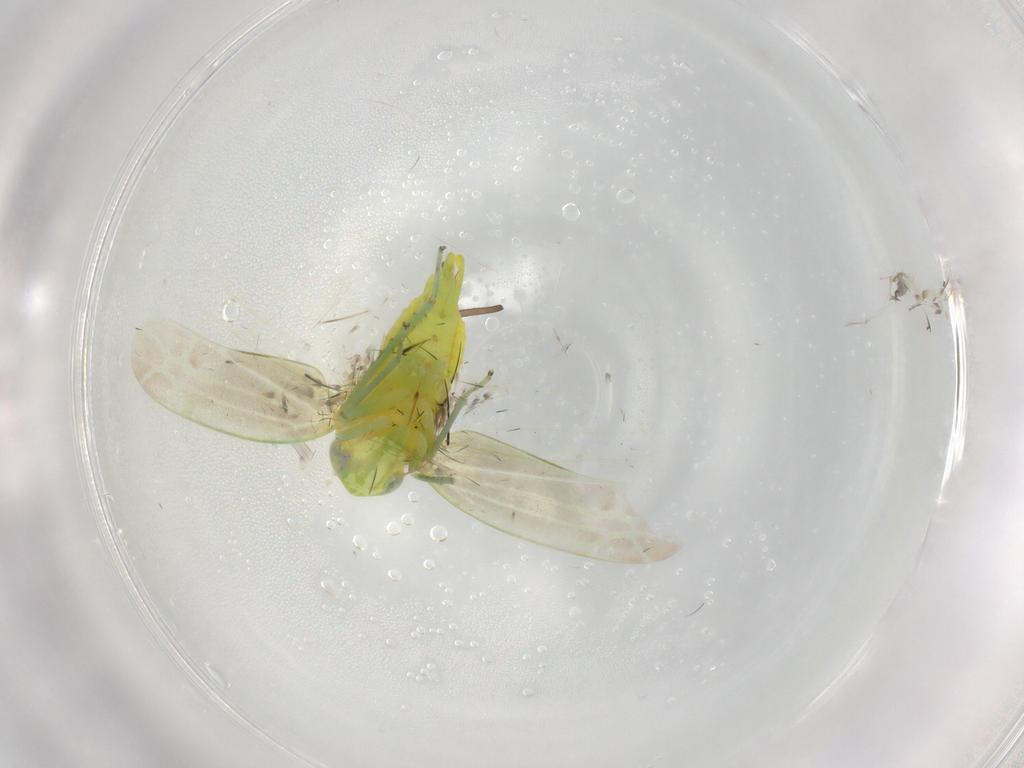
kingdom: Animalia
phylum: Arthropoda
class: Insecta
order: Hemiptera
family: Cicadellidae
